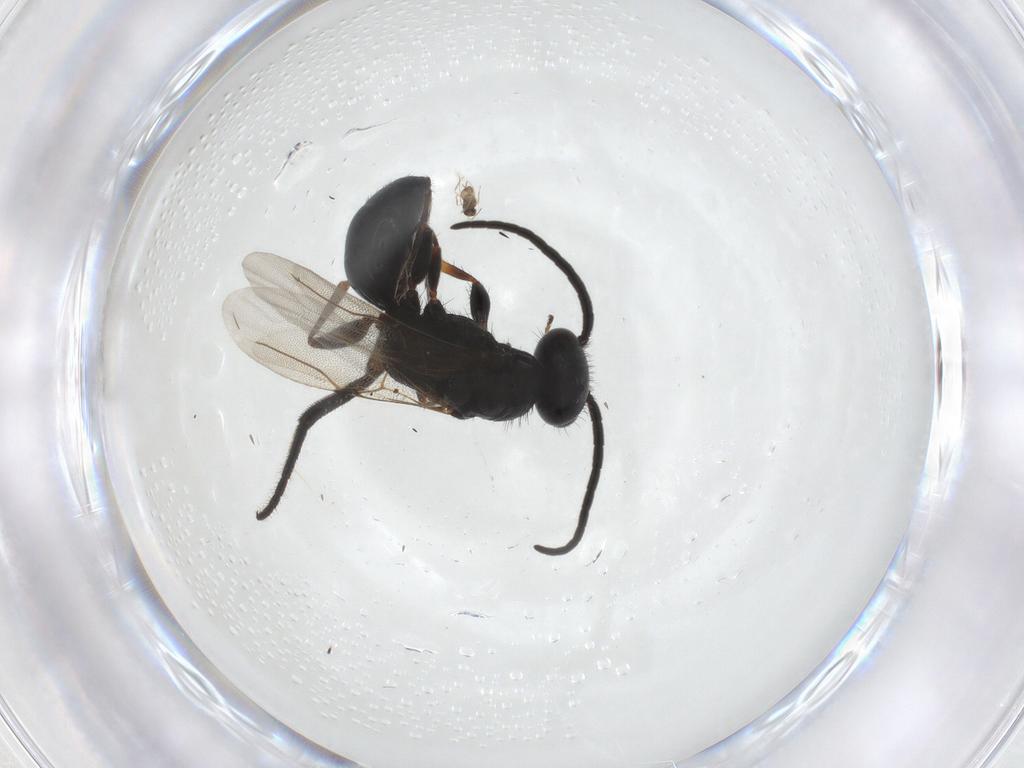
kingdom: Animalia
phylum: Arthropoda
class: Insecta
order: Hymenoptera
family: Bethylidae
